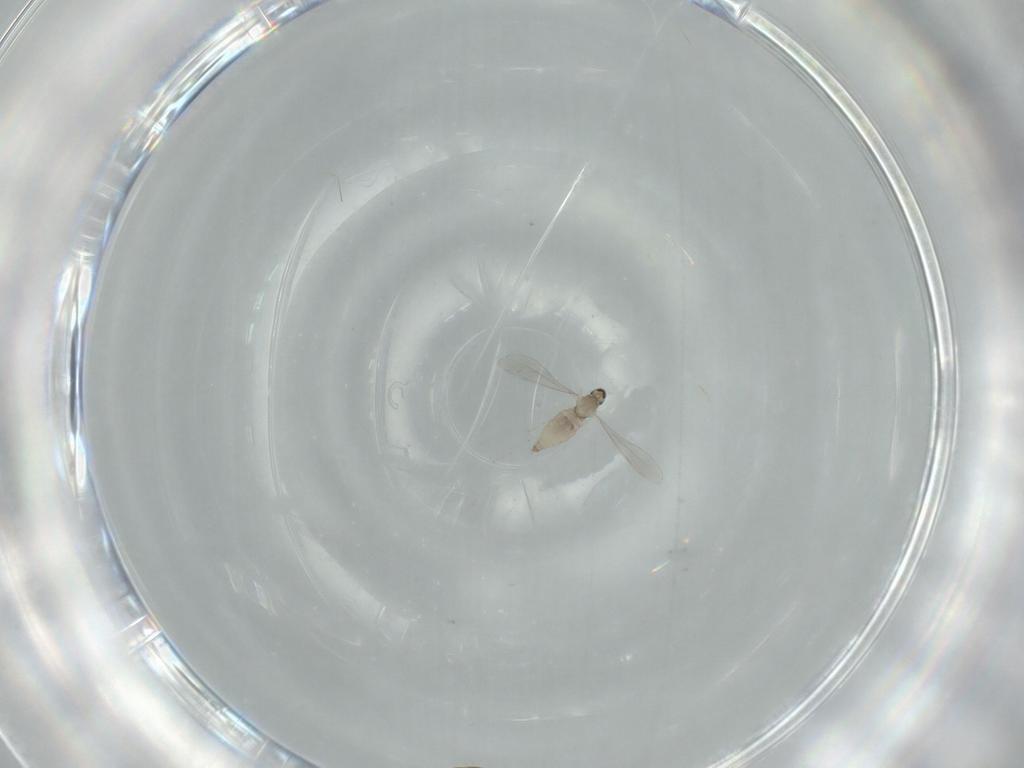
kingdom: Animalia
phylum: Arthropoda
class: Insecta
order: Diptera
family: Cecidomyiidae
